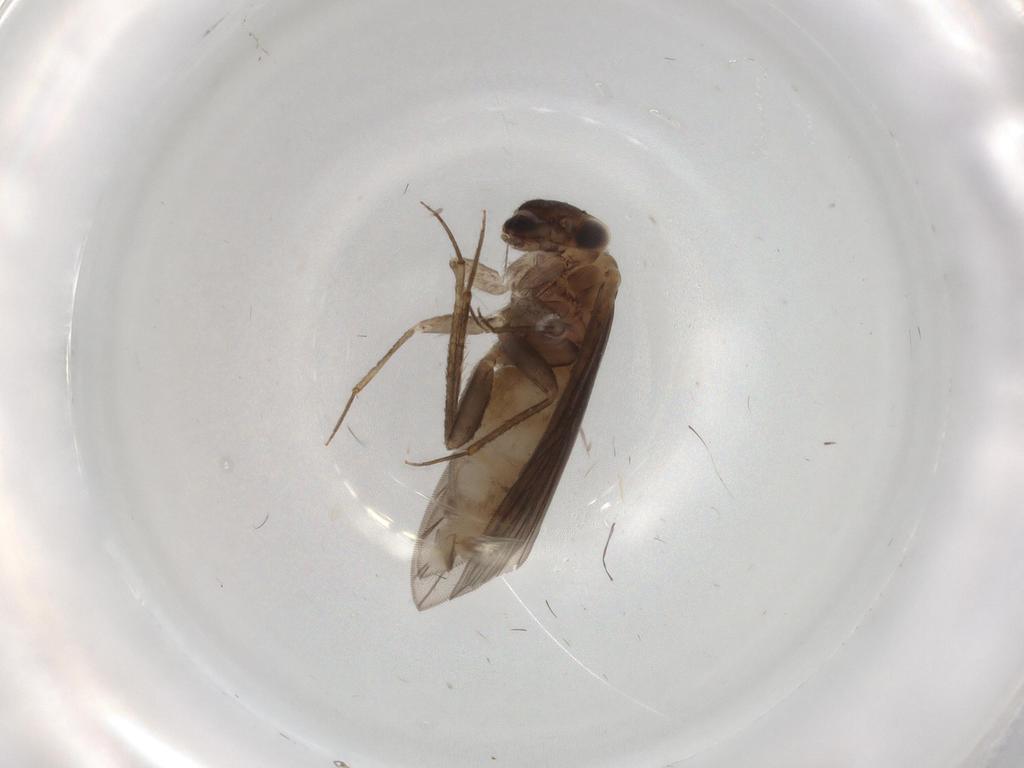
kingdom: Animalia
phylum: Arthropoda
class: Insecta
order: Psocodea
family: Lepidopsocidae
